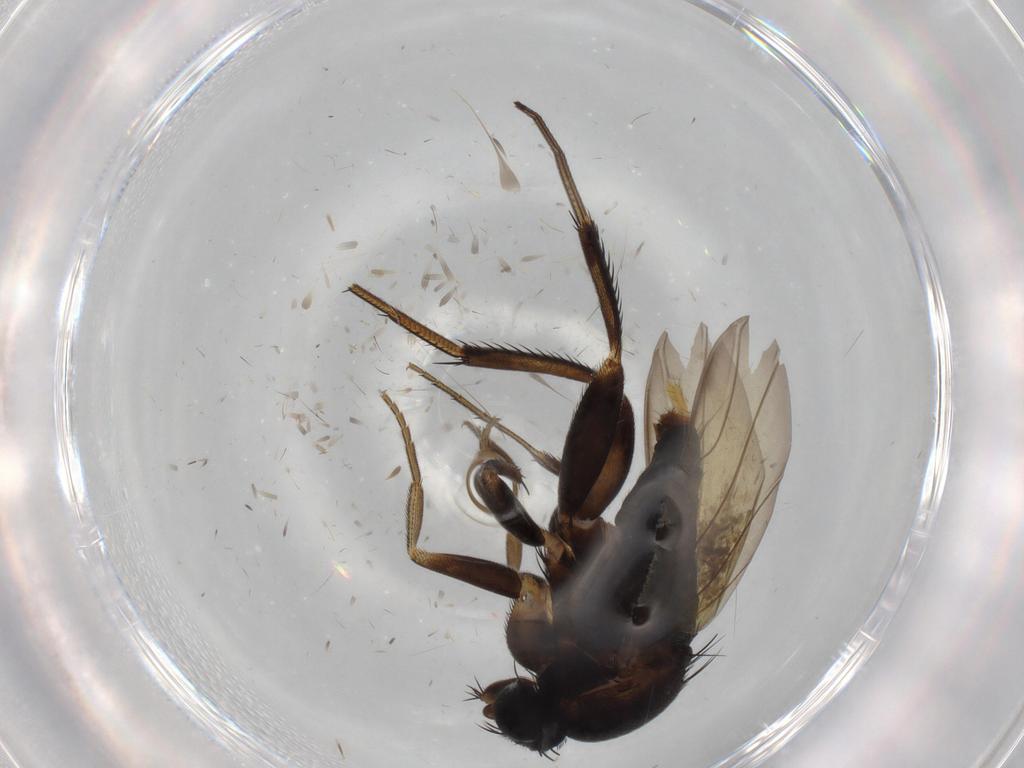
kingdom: Animalia
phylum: Arthropoda
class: Insecta
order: Diptera
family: Phoridae
